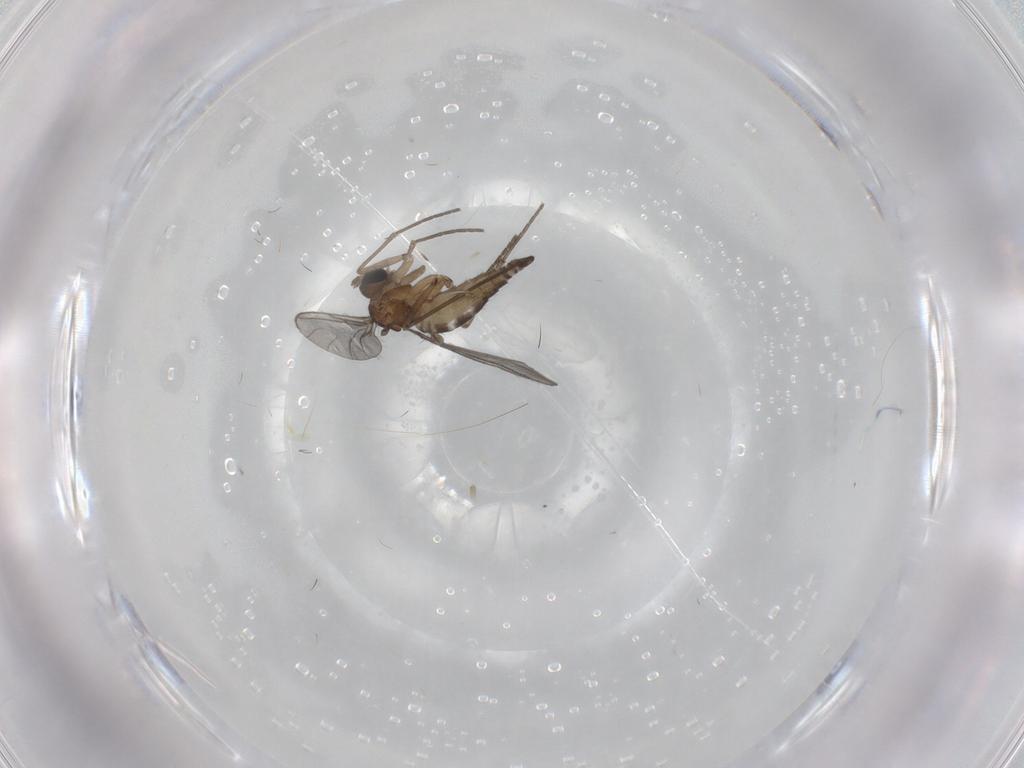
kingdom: Animalia
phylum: Arthropoda
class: Insecta
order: Diptera
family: Sciaridae
